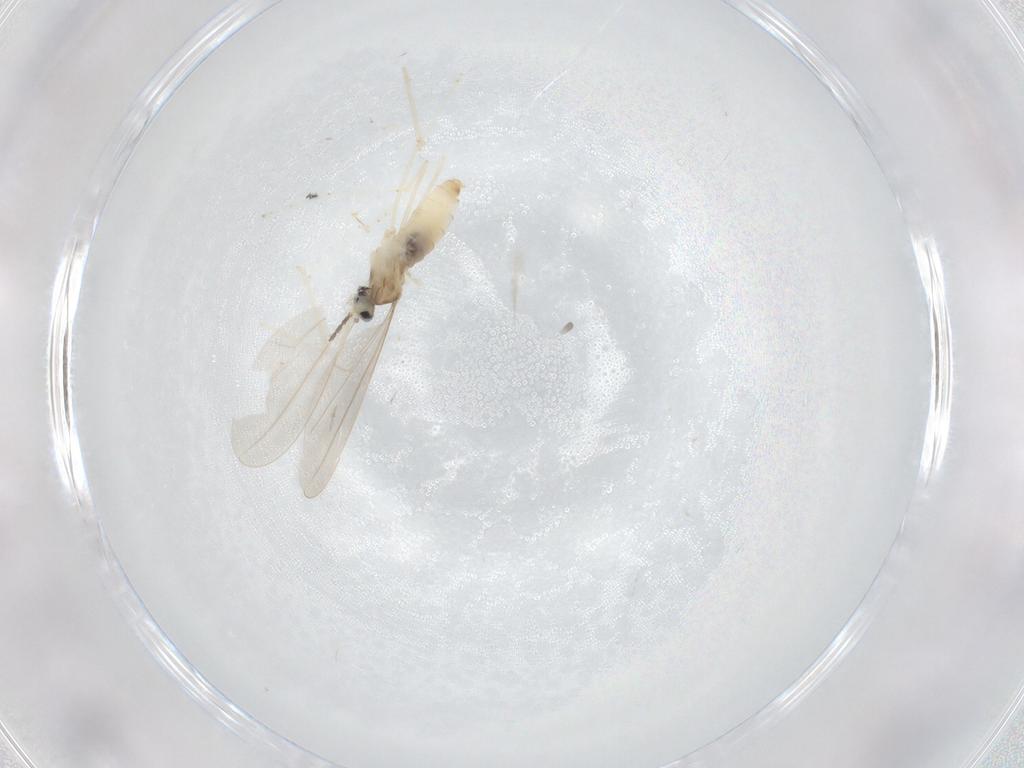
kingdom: Animalia
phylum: Arthropoda
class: Insecta
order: Diptera
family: Cecidomyiidae
